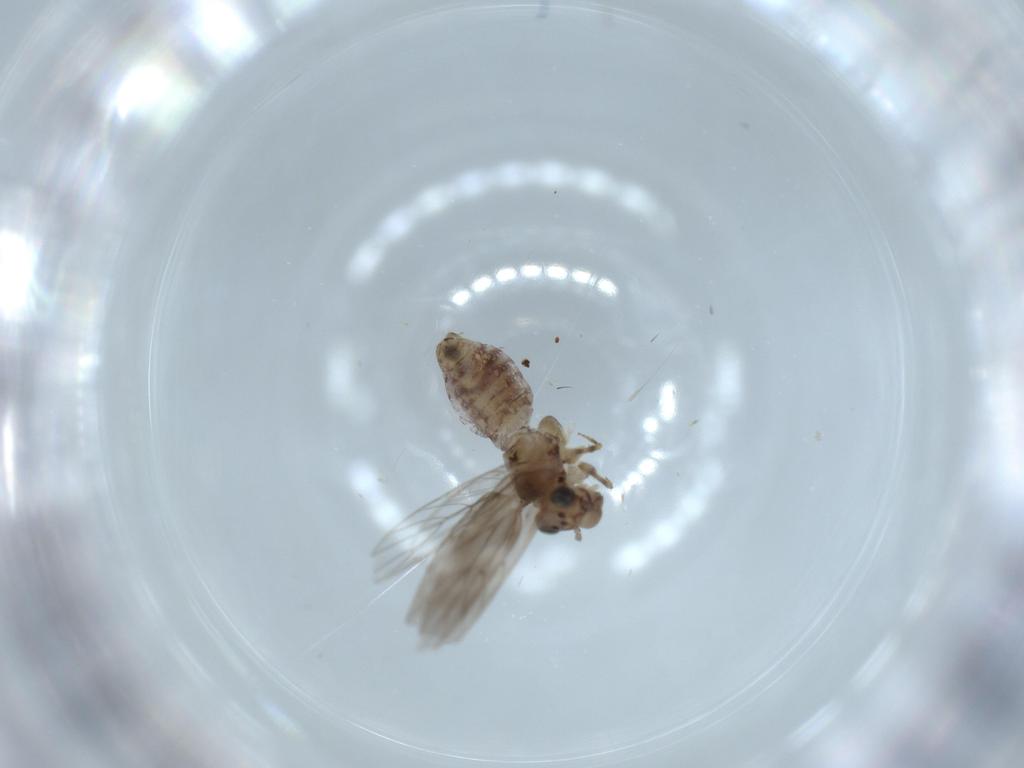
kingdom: Animalia
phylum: Arthropoda
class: Insecta
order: Psocodea
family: Lepidopsocidae
